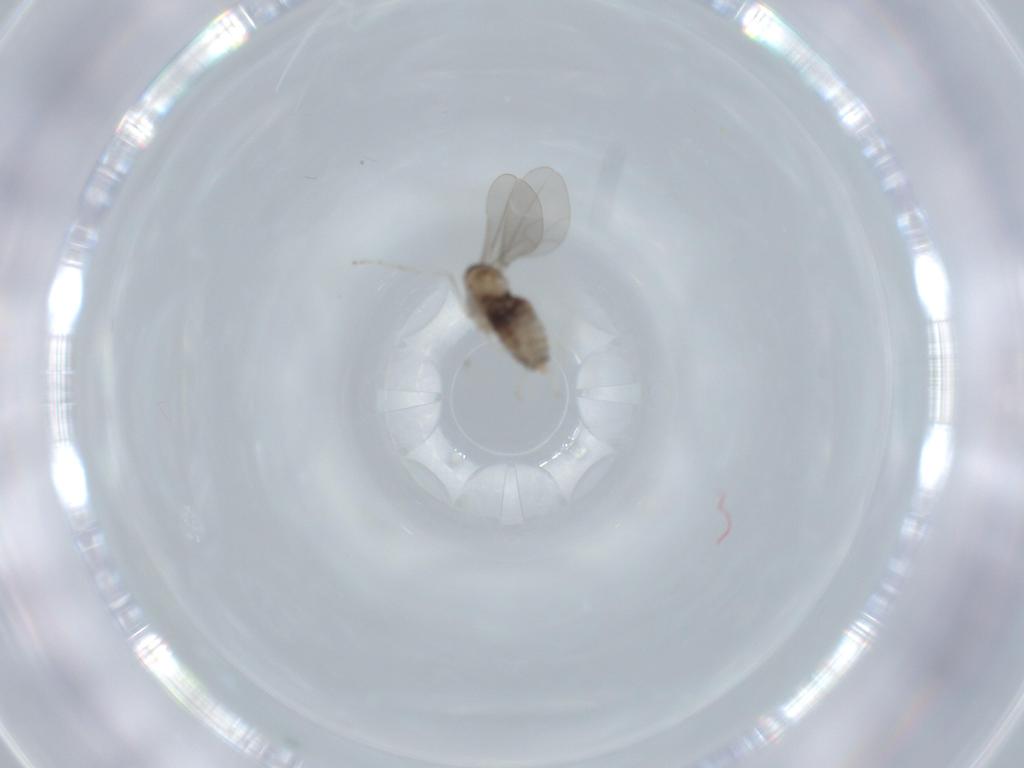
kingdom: Animalia
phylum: Arthropoda
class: Insecta
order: Diptera
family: Cecidomyiidae
